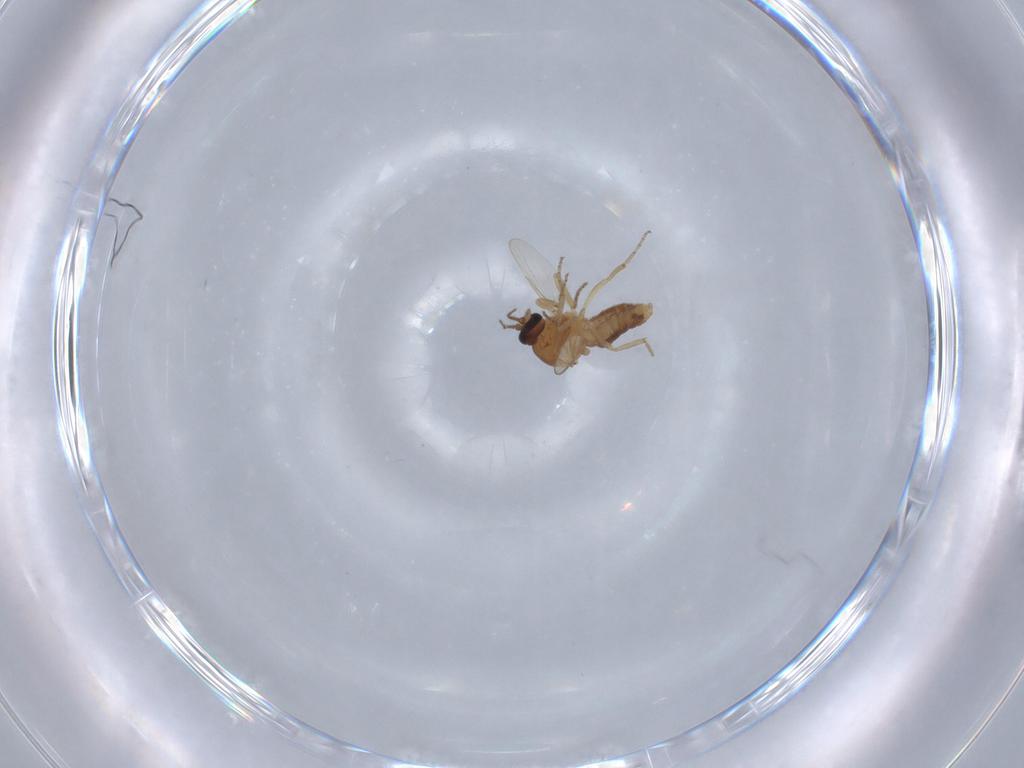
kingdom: Animalia
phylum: Arthropoda
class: Insecta
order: Diptera
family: Ceratopogonidae
